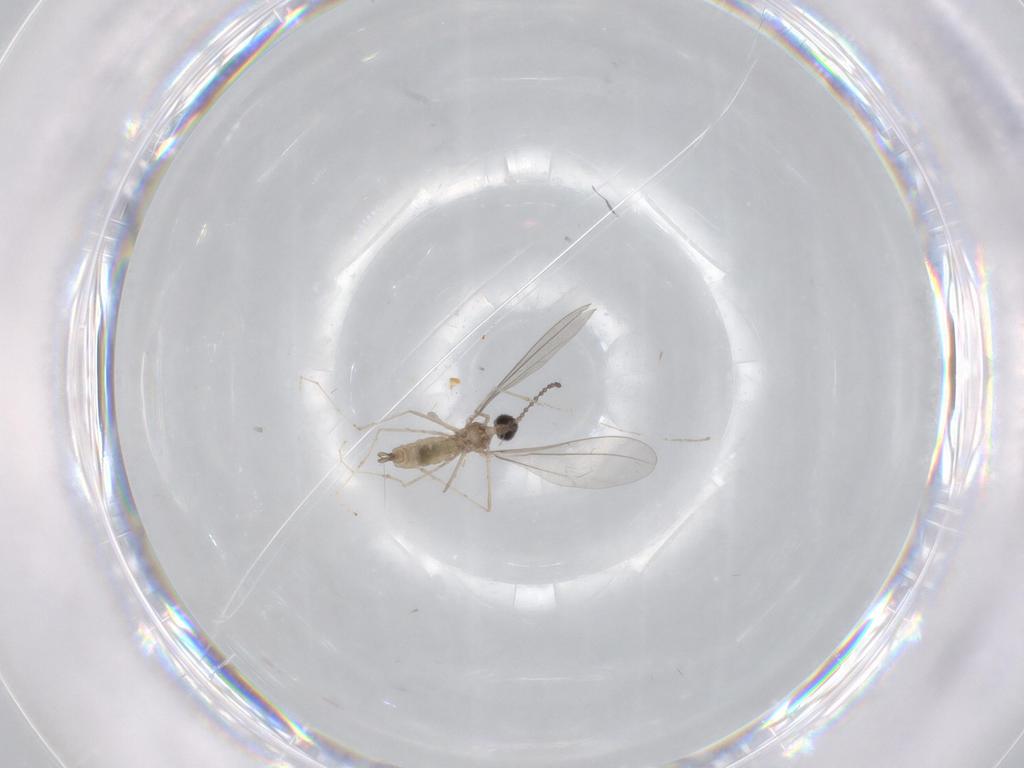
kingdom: Animalia
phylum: Arthropoda
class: Insecta
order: Diptera
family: Cecidomyiidae
